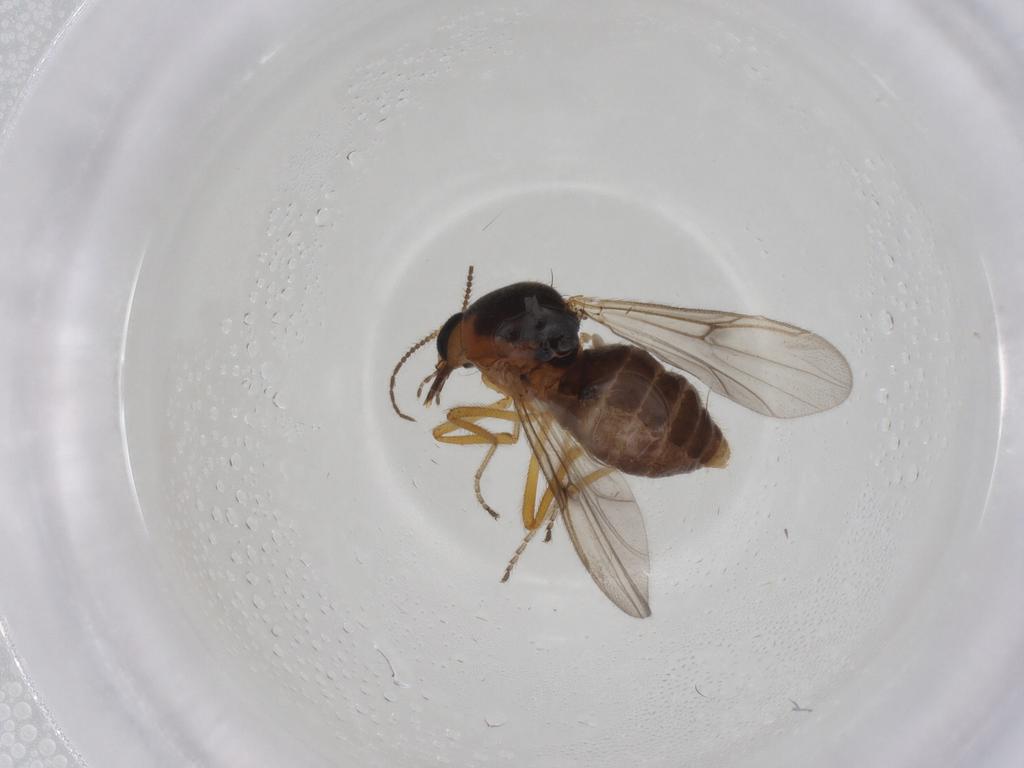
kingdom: Animalia
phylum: Arthropoda
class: Insecta
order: Diptera
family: Ceratopogonidae
